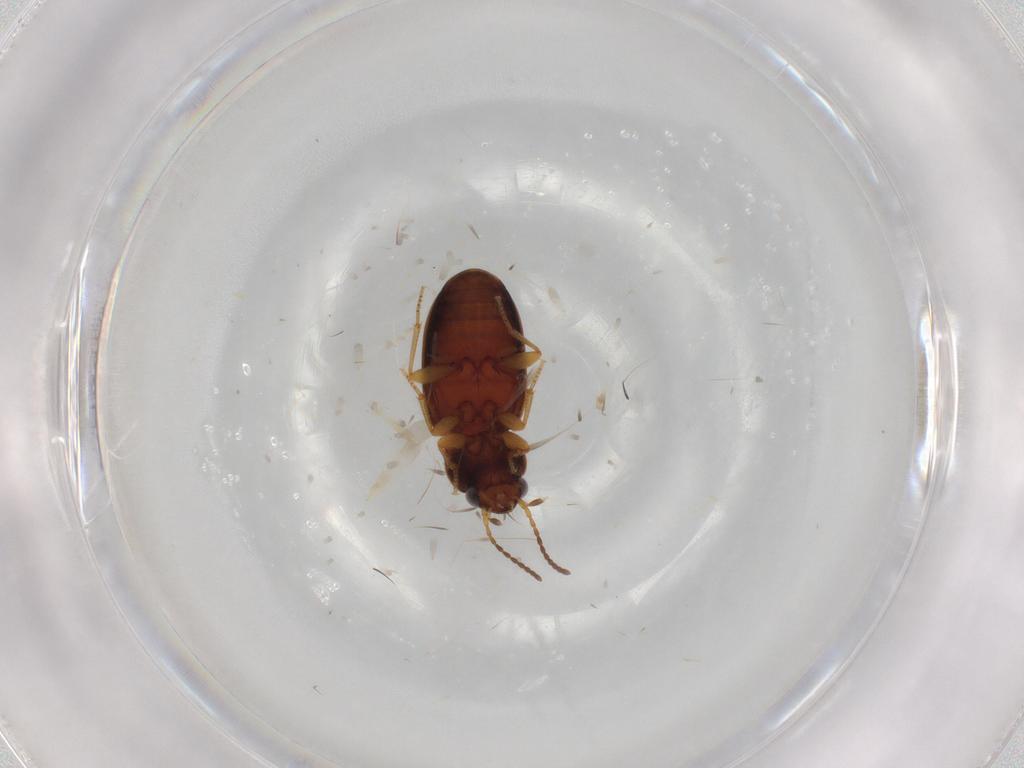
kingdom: Animalia
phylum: Arthropoda
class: Insecta
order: Coleoptera
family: Carabidae
